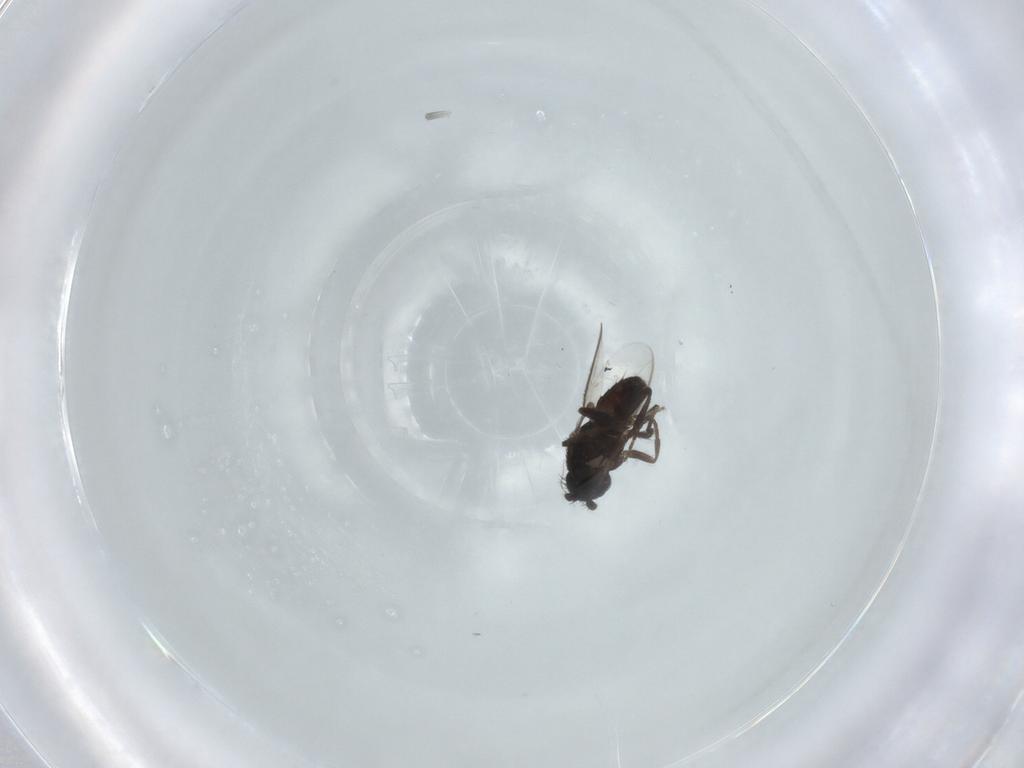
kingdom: Animalia
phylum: Arthropoda
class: Insecta
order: Diptera
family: Sphaeroceridae
